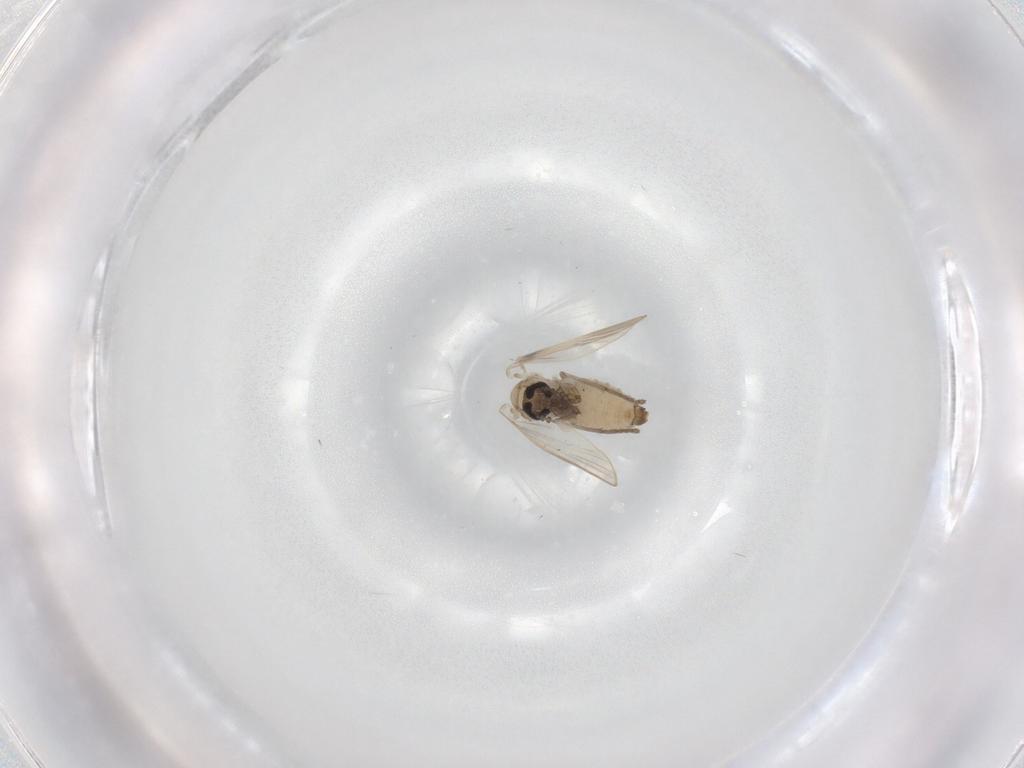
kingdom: Animalia
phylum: Arthropoda
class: Insecta
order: Diptera
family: Psychodidae
